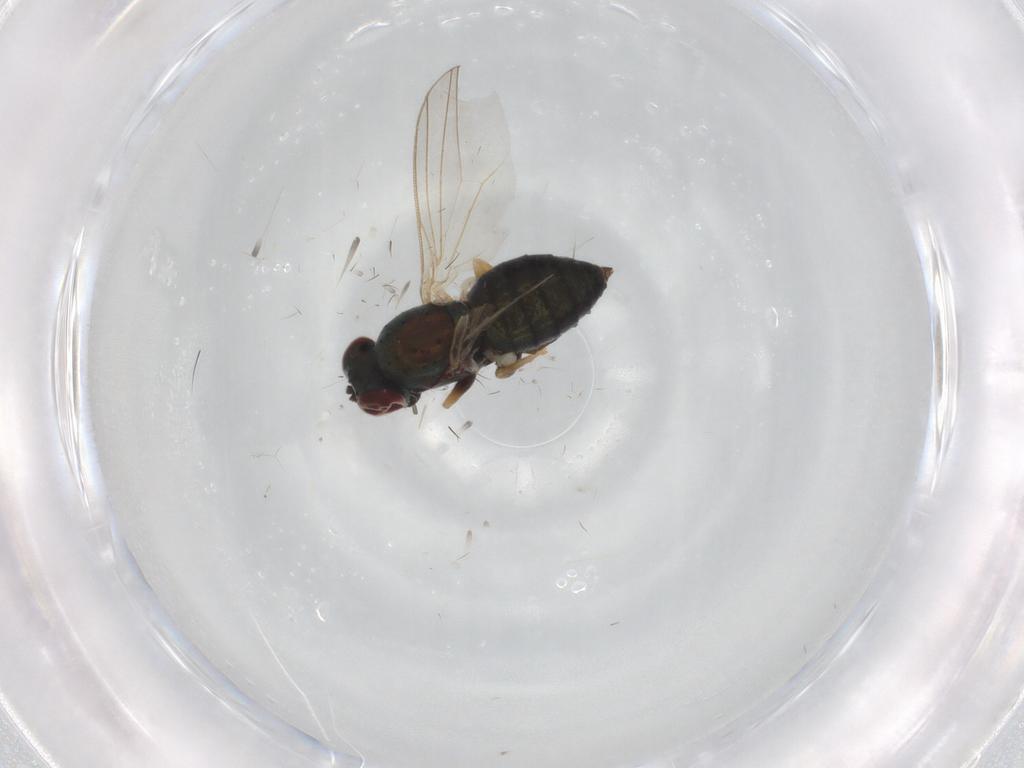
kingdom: Animalia
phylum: Arthropoda
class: Insecta
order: Diptera
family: Dolichopodidae
